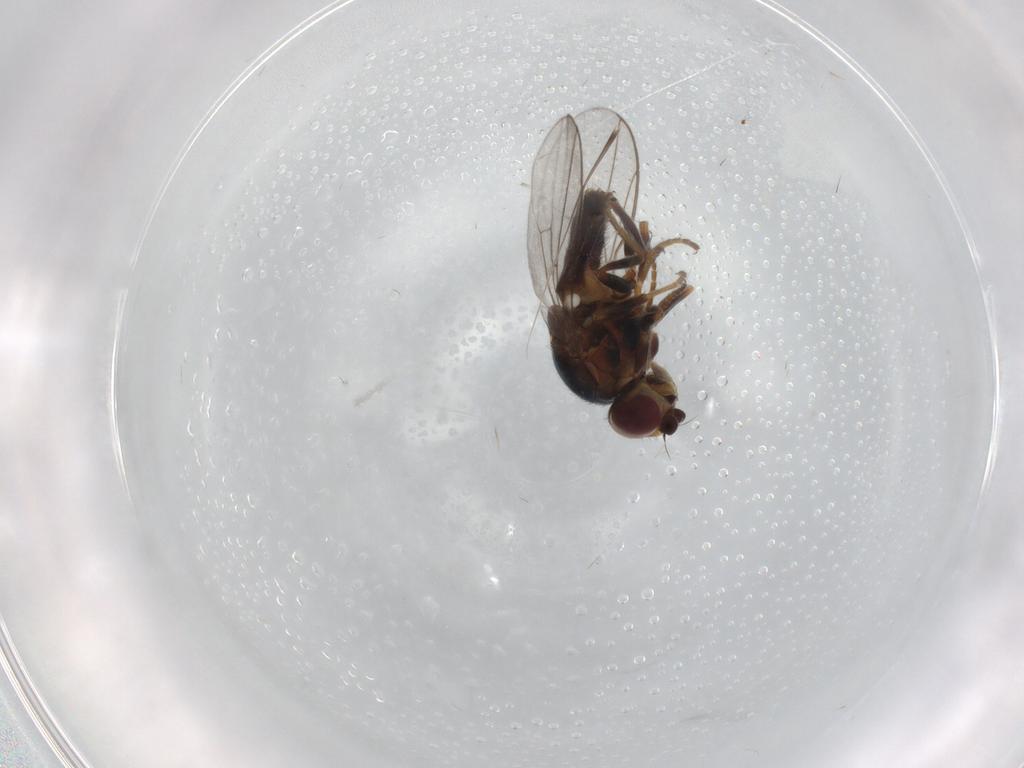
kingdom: Animalia
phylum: Arthropoda
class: Insecta
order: Diptera
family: Chloropidae
